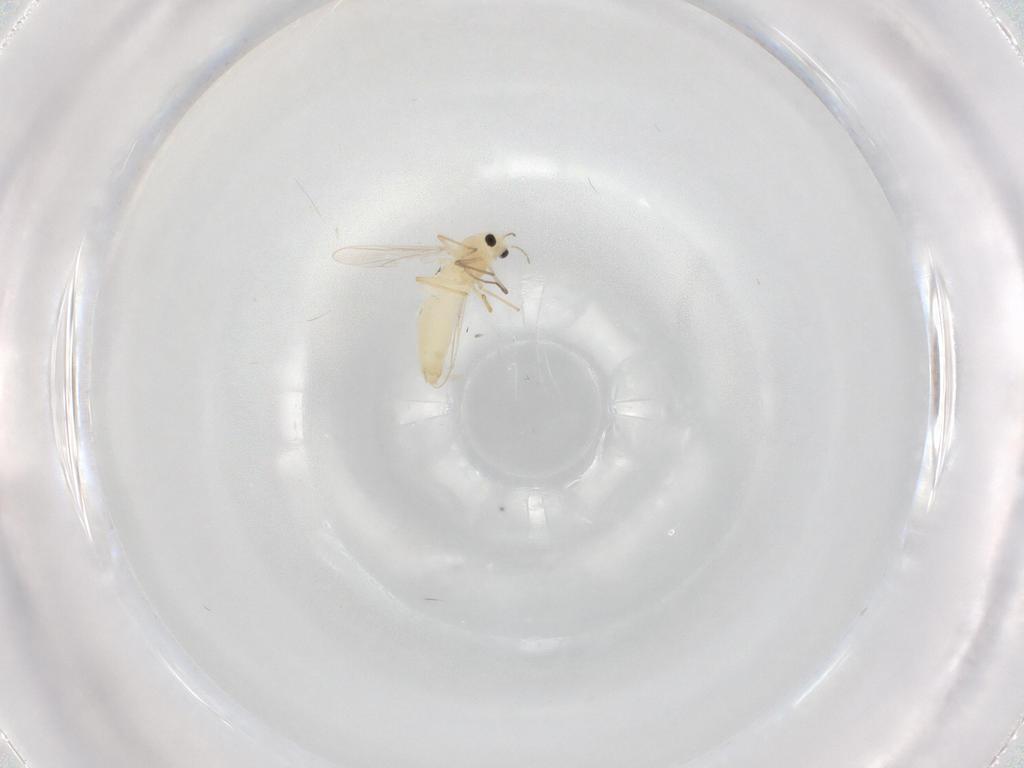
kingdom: Animalia
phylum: Arthropoda
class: Insecta
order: Diptera
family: Chironomidae
